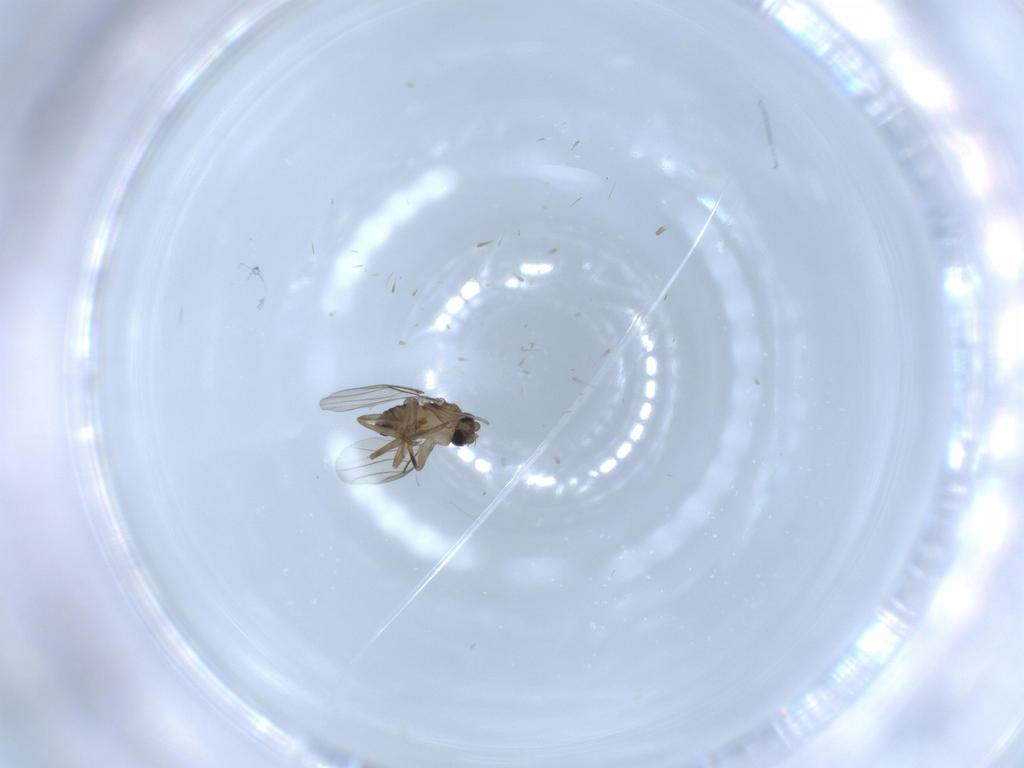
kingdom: Animalia
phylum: Arthropoda
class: Insecta
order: Diptera
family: Phoridae
